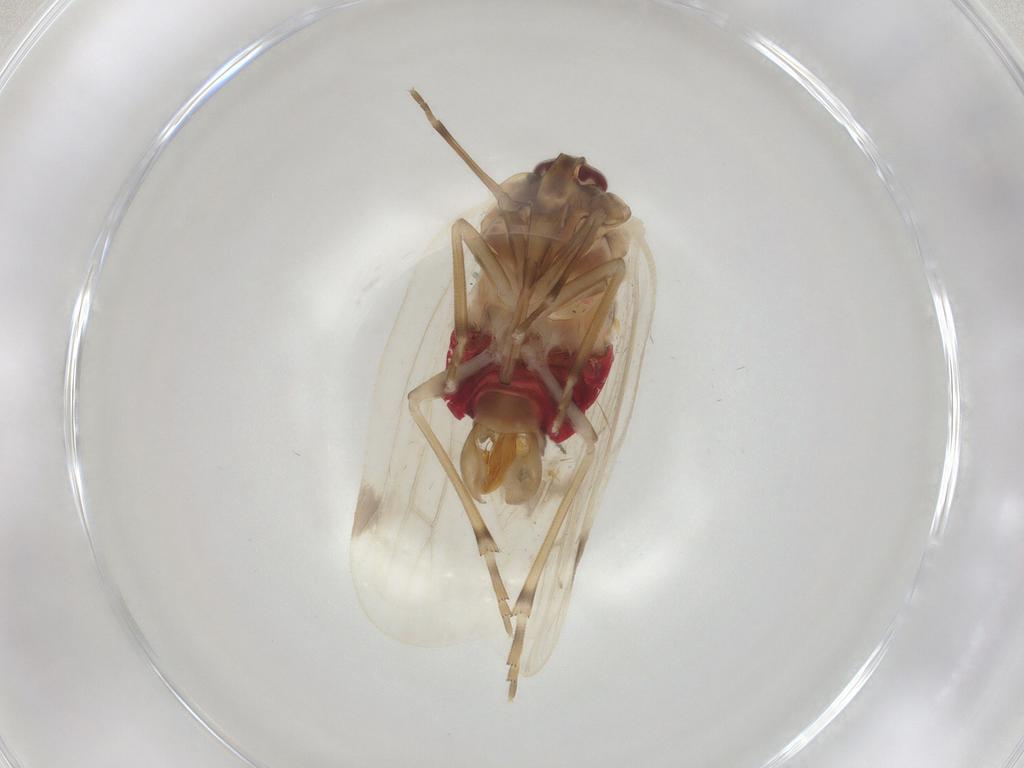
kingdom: Animalia
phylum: Arthropoda
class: Insecta
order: Hemiptera
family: Fulgoroidea_incertae_sedis
